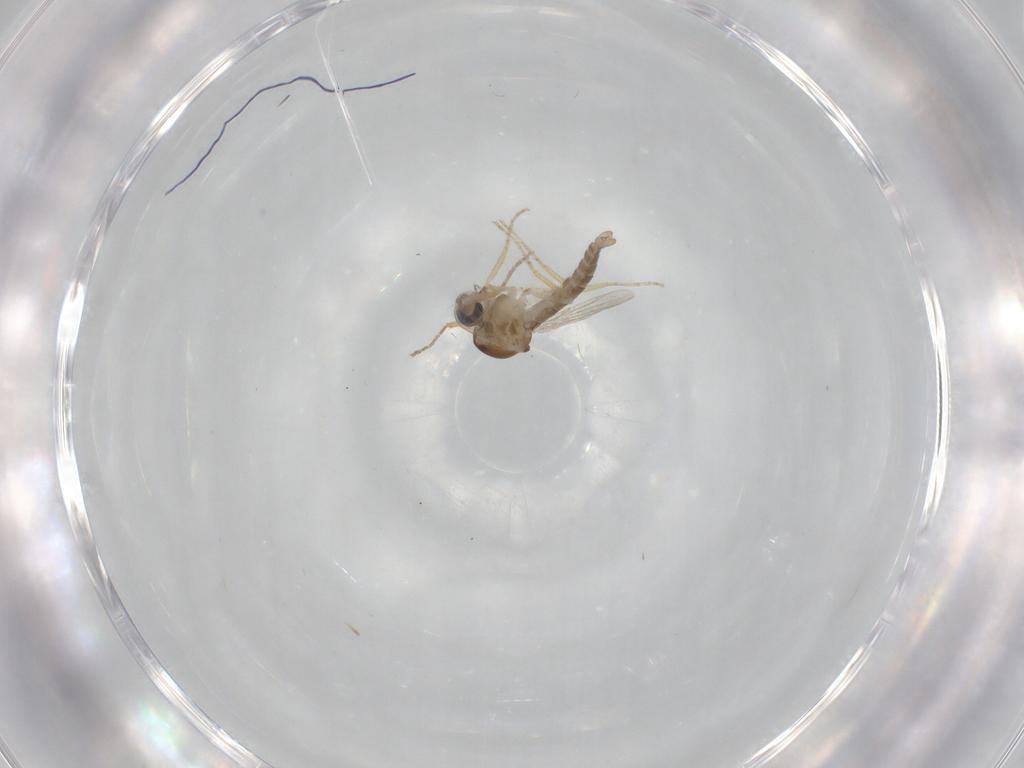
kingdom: Animalia
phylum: Arthropoda
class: Insecta
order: Diptera
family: Ceratopogonidae
